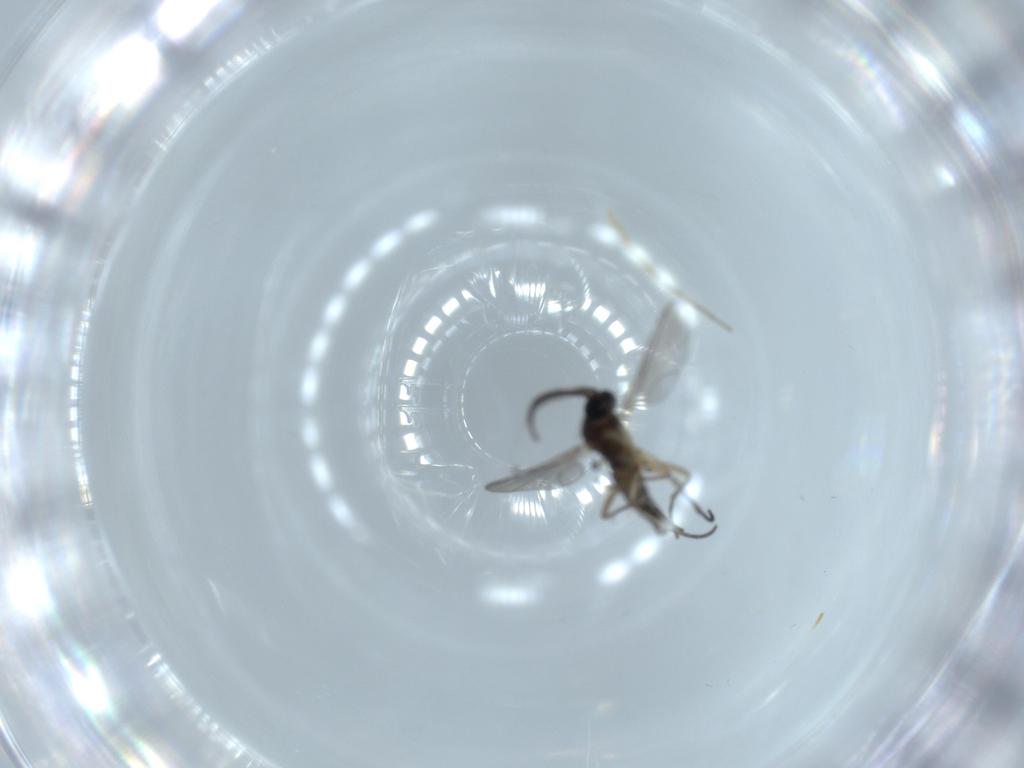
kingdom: Animalia
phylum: Arthropoda
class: Insecta
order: Diptera
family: Sciaridae
